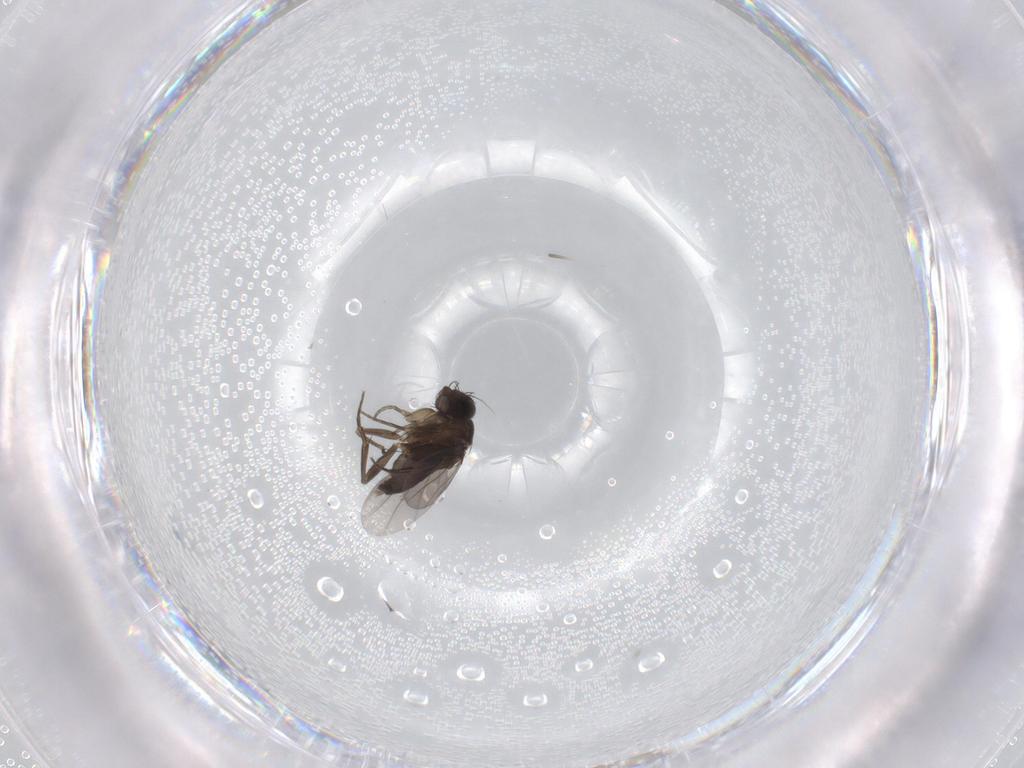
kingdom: Animalia
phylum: Arthropoda
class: Insecta
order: Diptera
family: Phoridae
